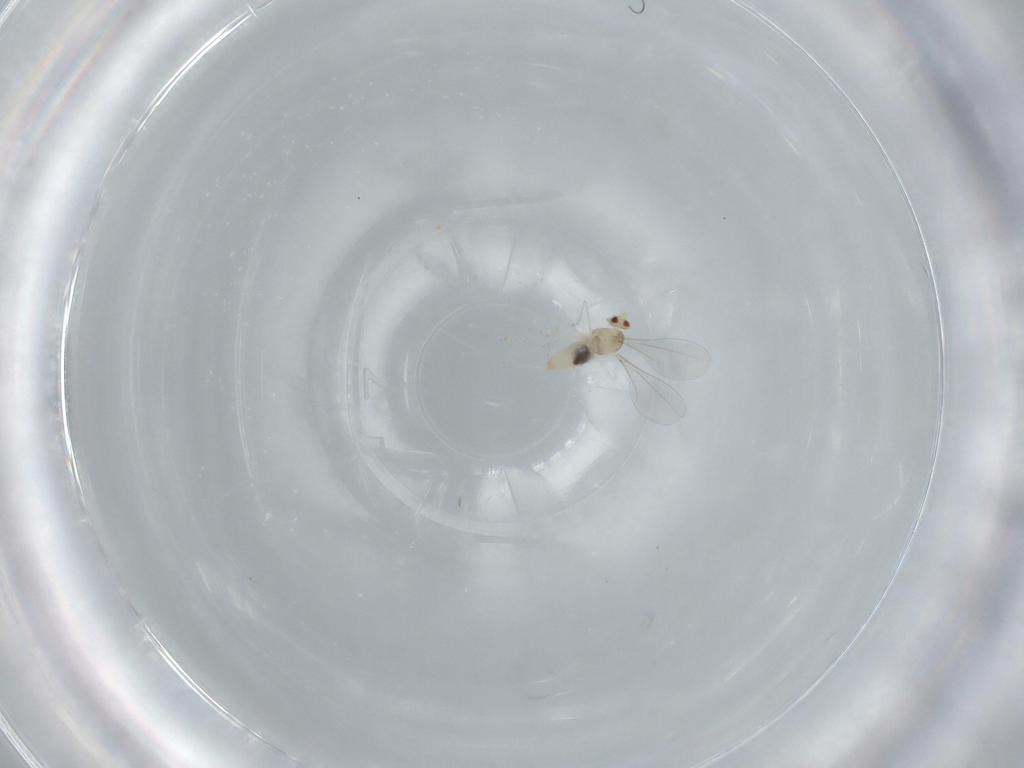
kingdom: Animalia
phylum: Arthropoda
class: Insecta
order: Diptera
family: Cecidomyiidae
